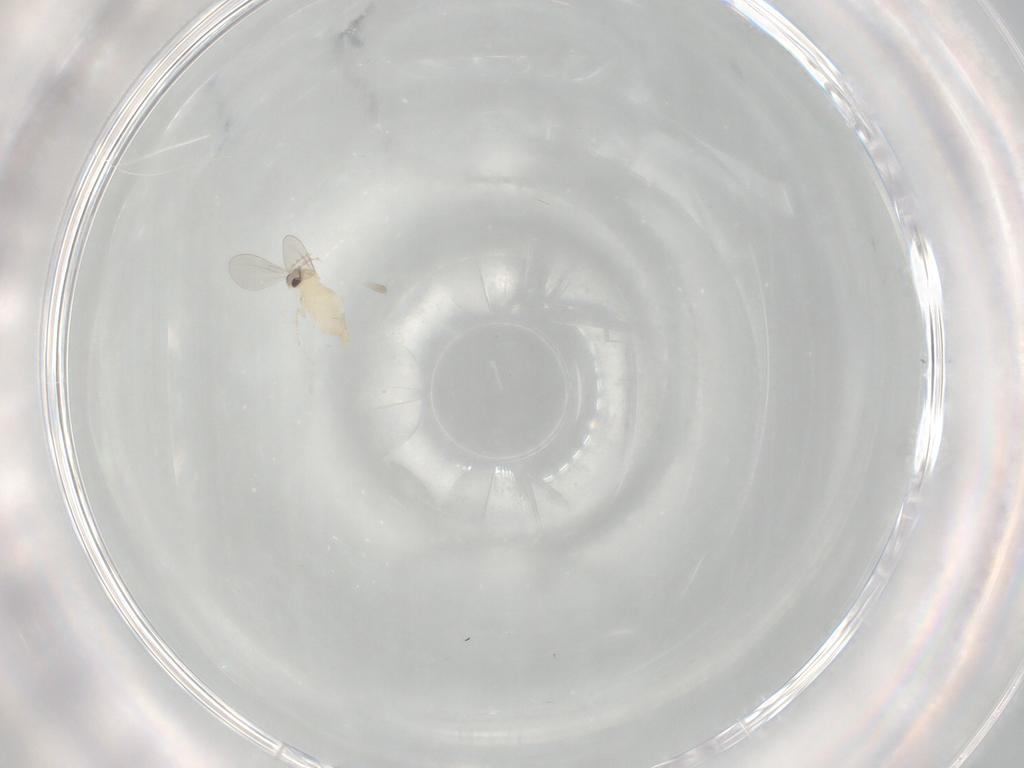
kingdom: Animalia
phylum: Arthropoda
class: Insecta
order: Diptera
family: Cecidomyiidae
